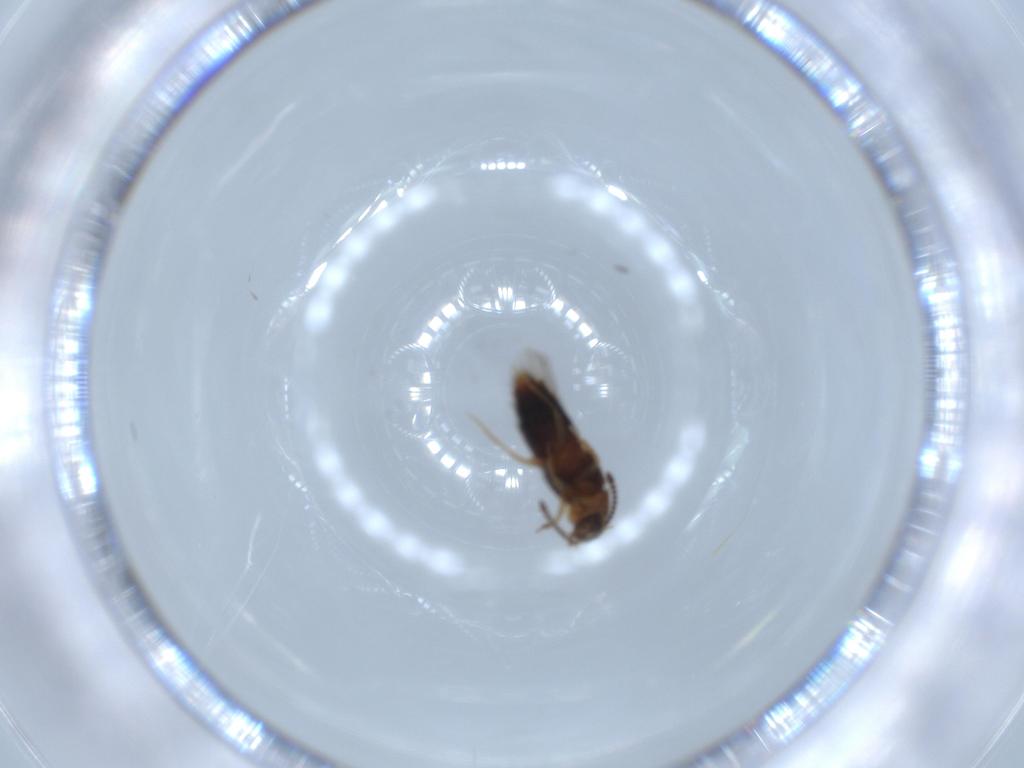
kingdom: Animalia
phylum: Arthropoda
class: Insecta
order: Coleoptera
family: Staphylinidae
